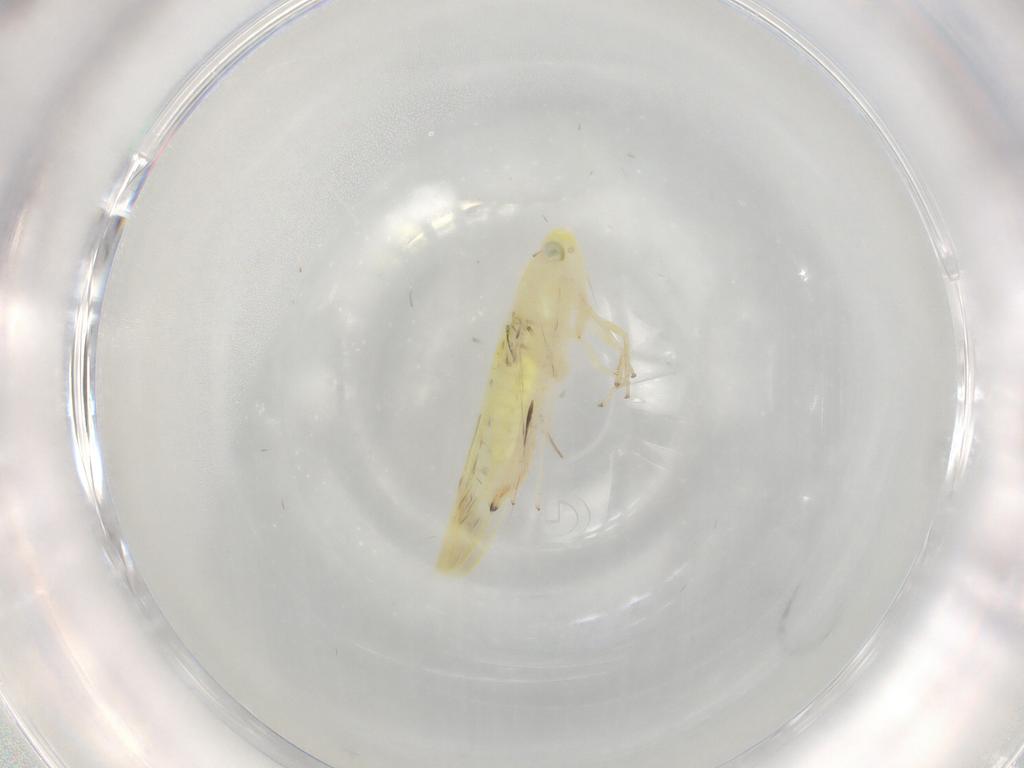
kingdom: Animalia
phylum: Arthropoda
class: Insecta
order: Hemiptera
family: Cicadellidae
